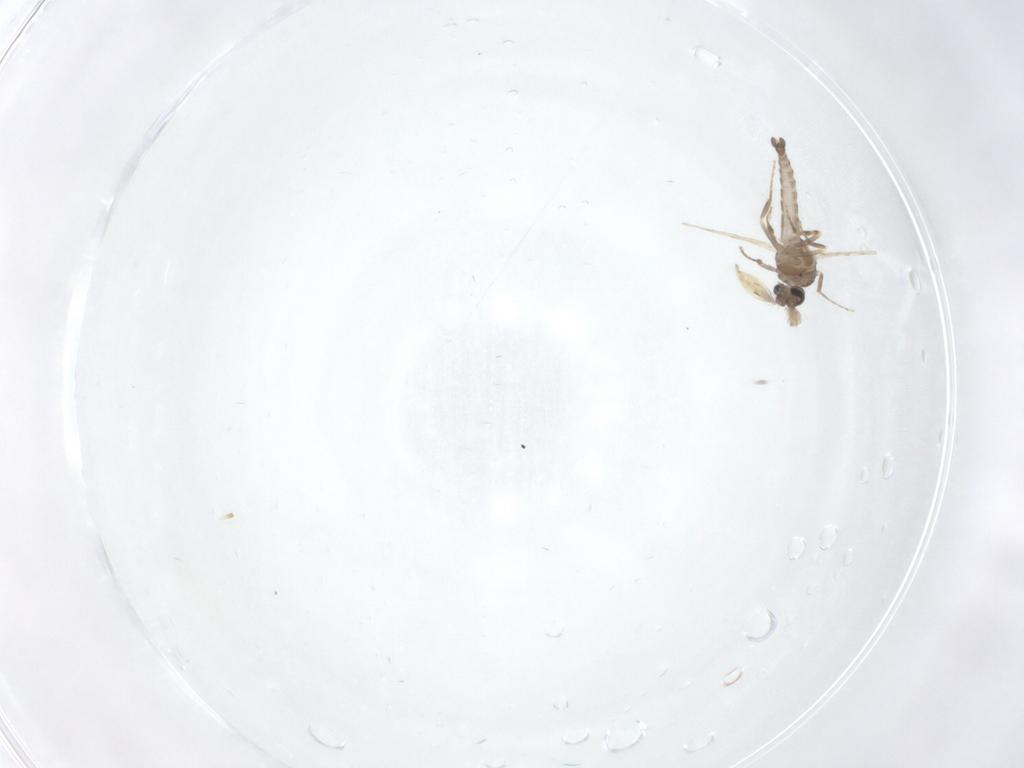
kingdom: Animalia
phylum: Arthropoda
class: Insecta
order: Diptera
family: Ceratopogonidae
